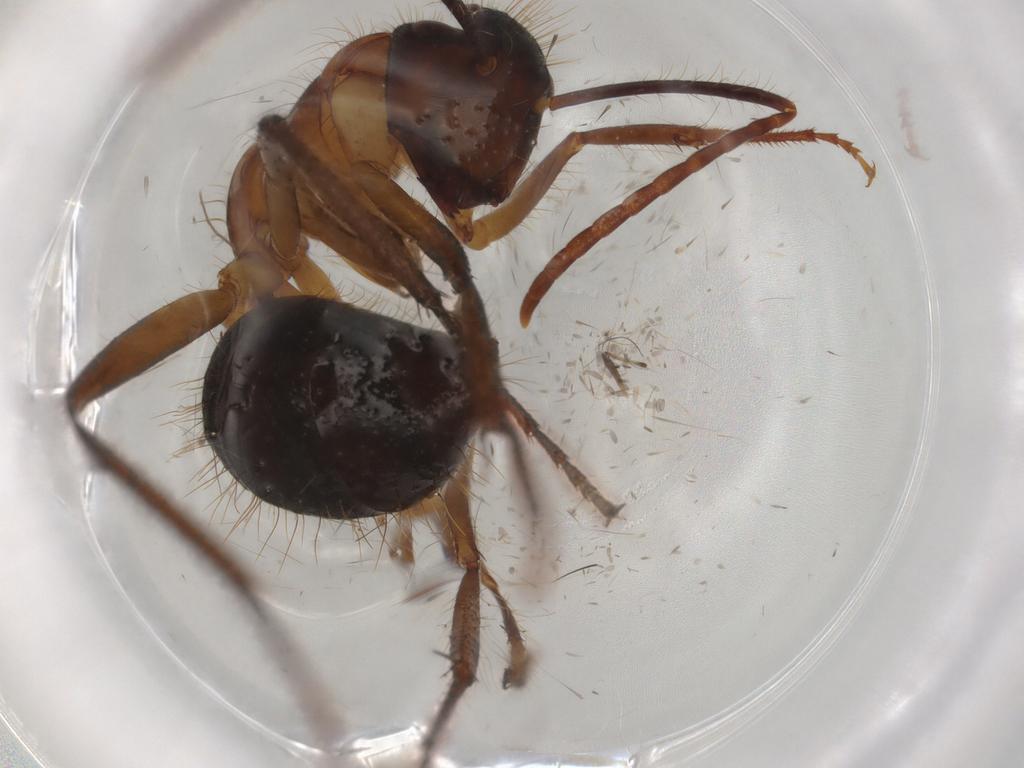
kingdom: Animalia
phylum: Arthropoda
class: Insecta
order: Hymenoptera
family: Formicidae
